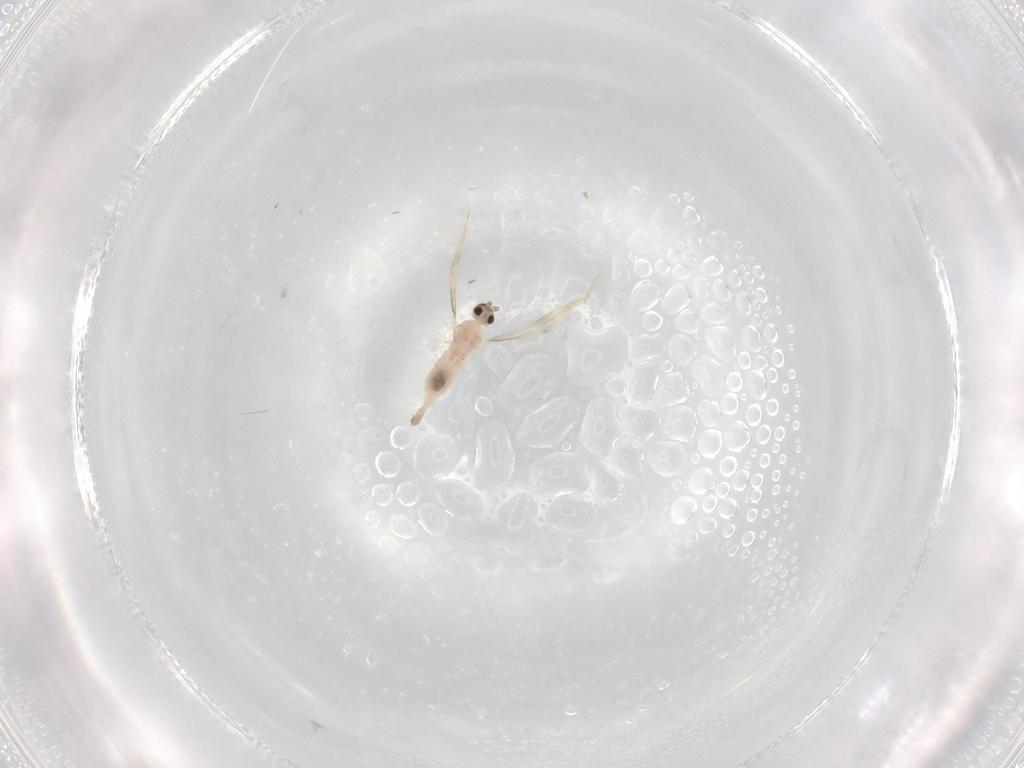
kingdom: Animalia
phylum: Arthropoda
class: Insecta
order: Diptera
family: Cecidomyiidae
